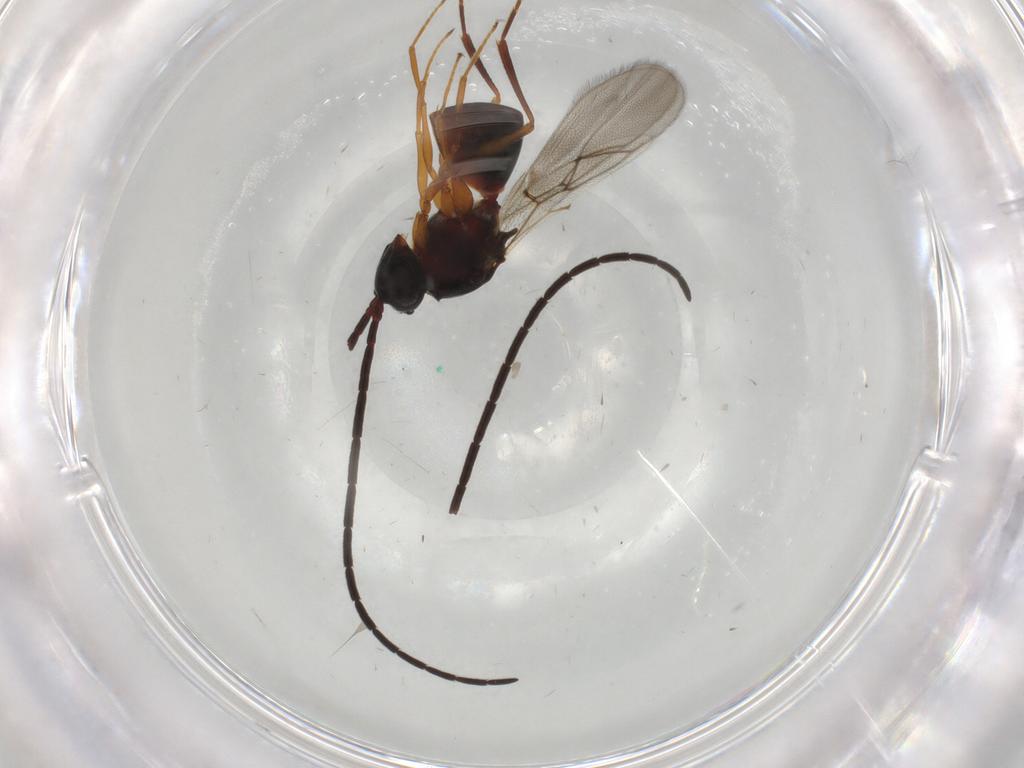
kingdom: Animalia
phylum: Arthropoda
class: Insecta
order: Hymenoptera
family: Figitidae
